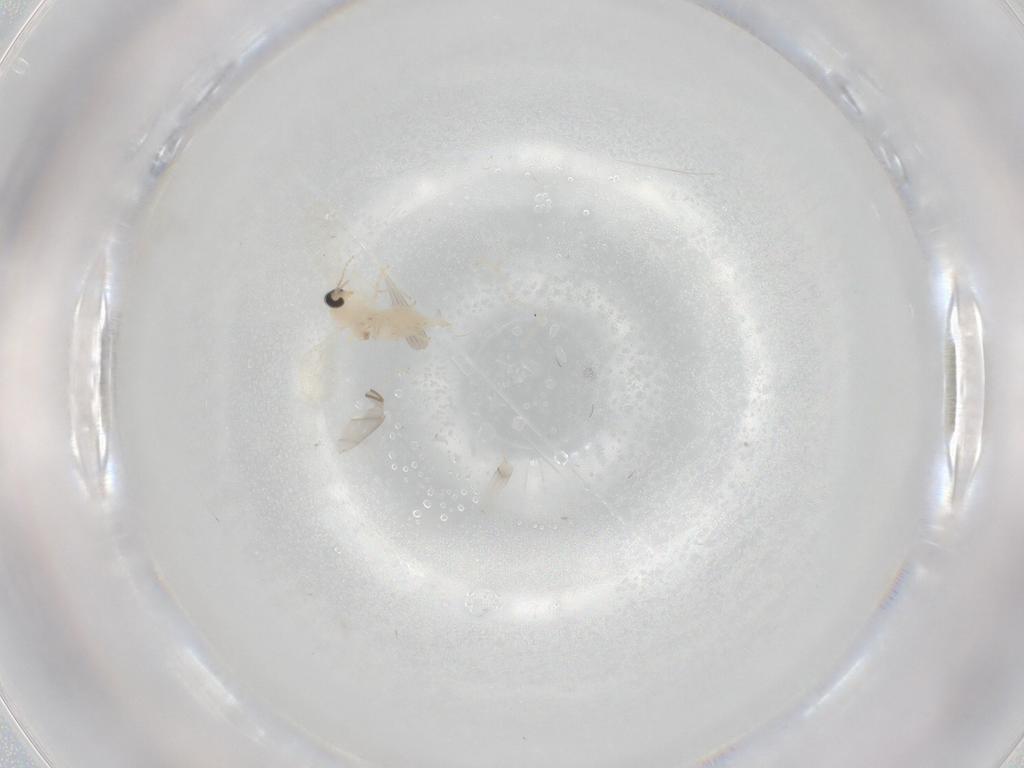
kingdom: Animalia
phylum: Arthropoda
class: Insecta
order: Diptera
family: Cecidomyiidae
